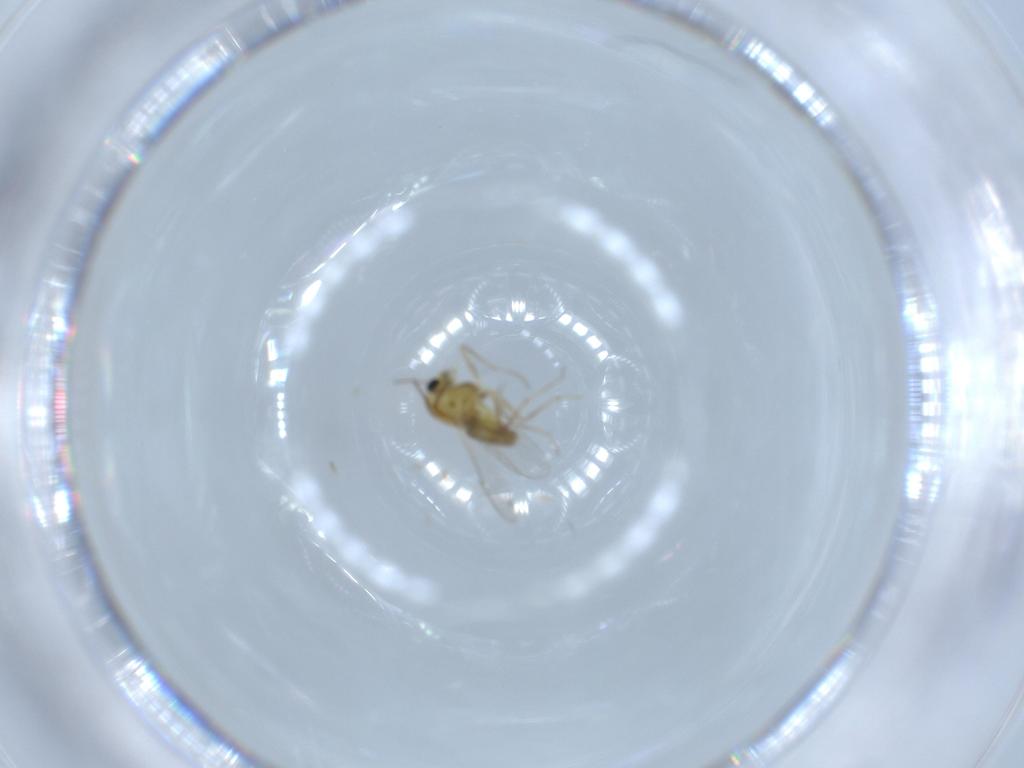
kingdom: Animalia
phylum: Arthropoda
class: Insecta
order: Diptera
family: Chironomidae
